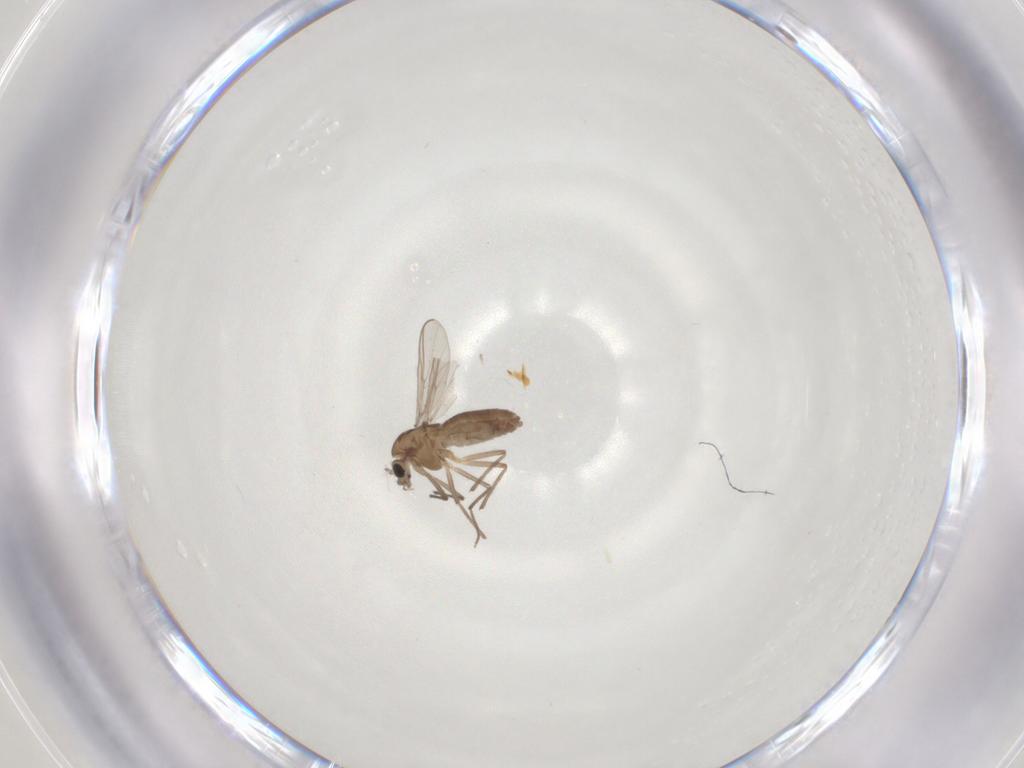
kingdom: Animalia
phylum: Arthropoda
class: Insecta
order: Diptera
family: Chironomidae
